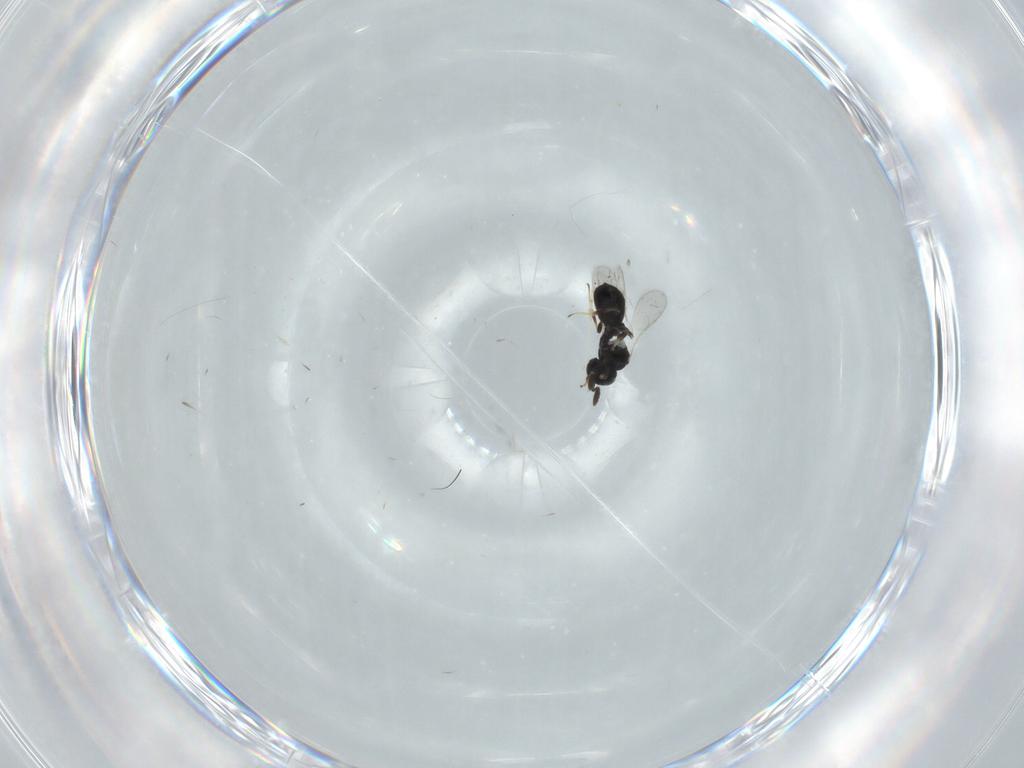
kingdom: Animalia
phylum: Arthropoda
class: Insecta
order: Hymenoptera
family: Scelionidae
